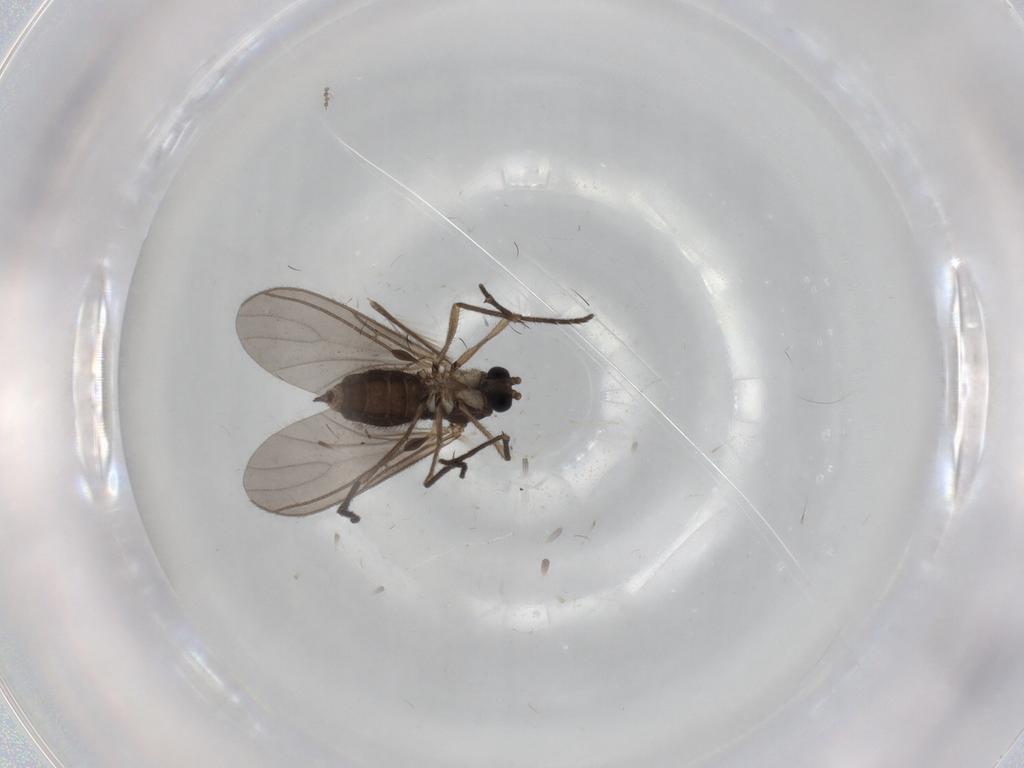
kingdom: Animalia
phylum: Arthropoda
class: Insecta
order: Diptera
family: Sciaridae
